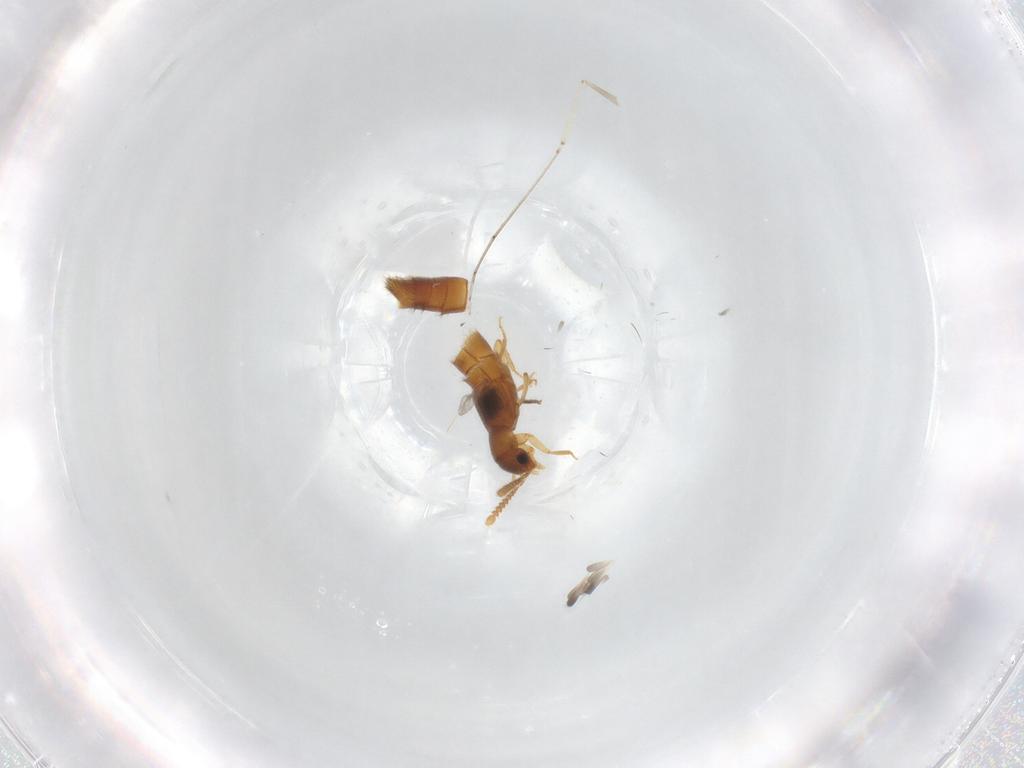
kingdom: Animalia
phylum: Arthropoda
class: Insecta
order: Coleoptera
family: Staphylinidae
